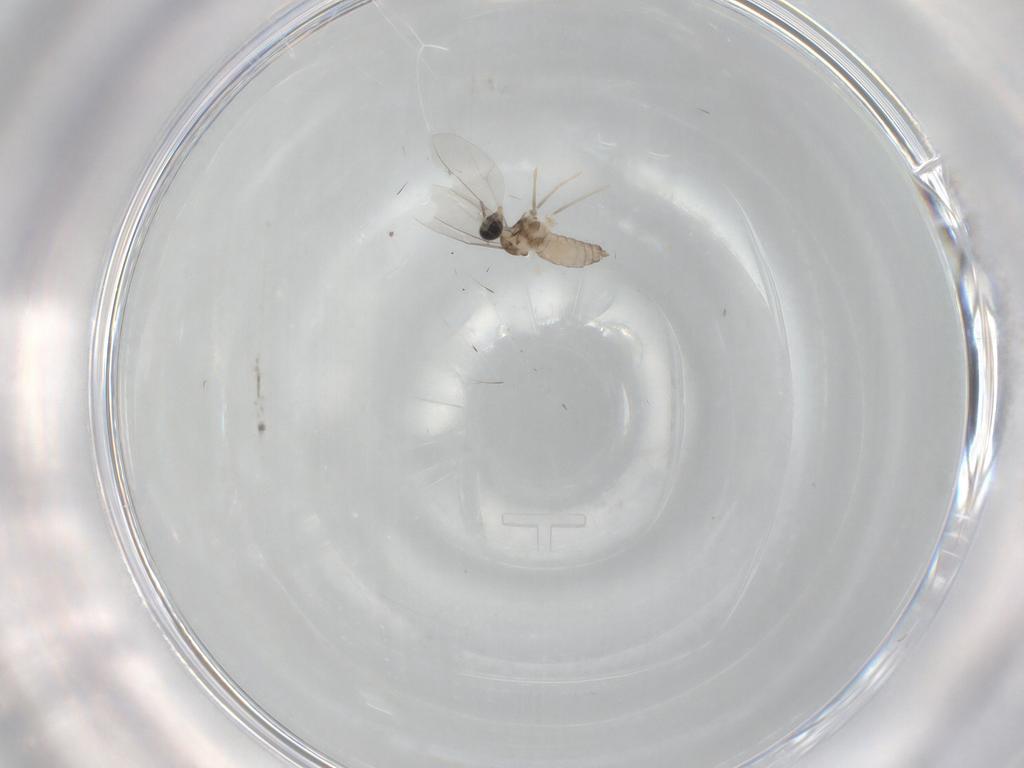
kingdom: Animalia
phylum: Arthropoda
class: Insecta
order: Diptera
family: Cecidomyiidae
